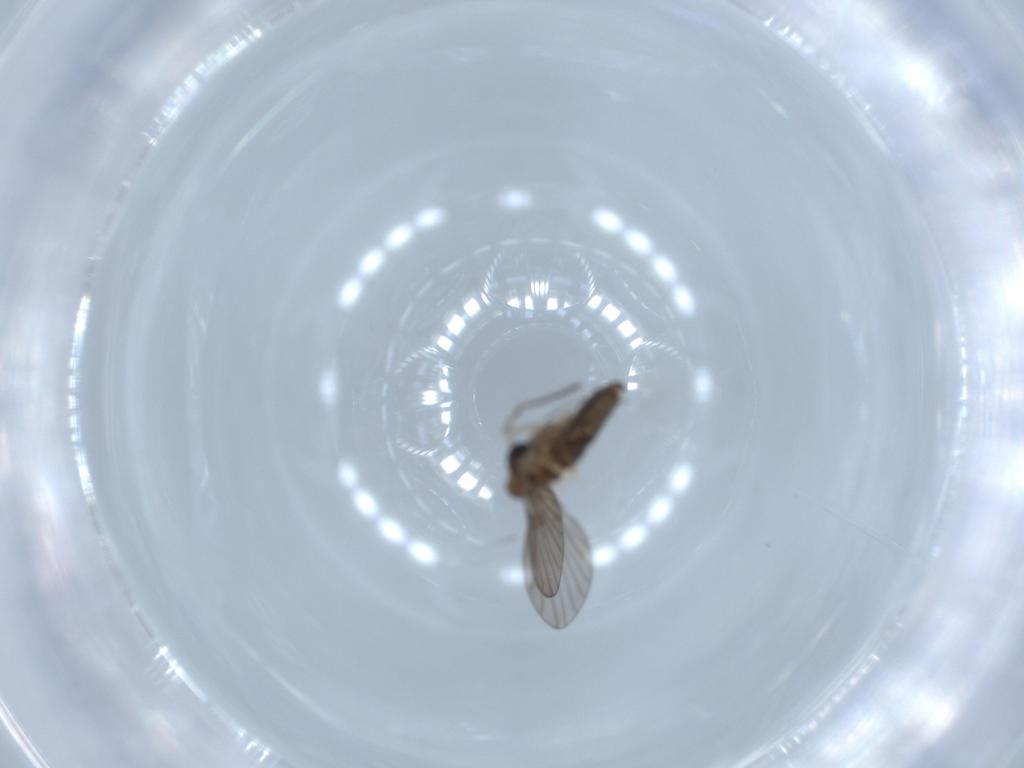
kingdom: Animalia
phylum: Arthropoda
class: Insecta
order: Diptera
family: Psychodidae
